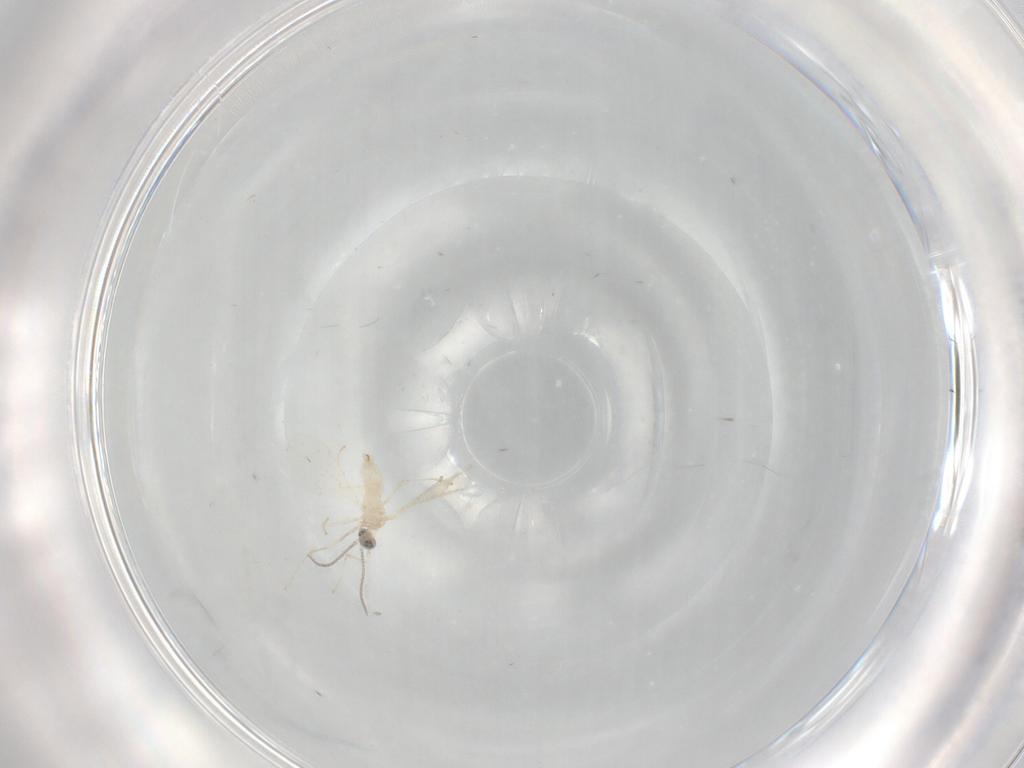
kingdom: Animalia
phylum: Arthropoda
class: Insecta
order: Diptera
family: Cecidomyiidae
